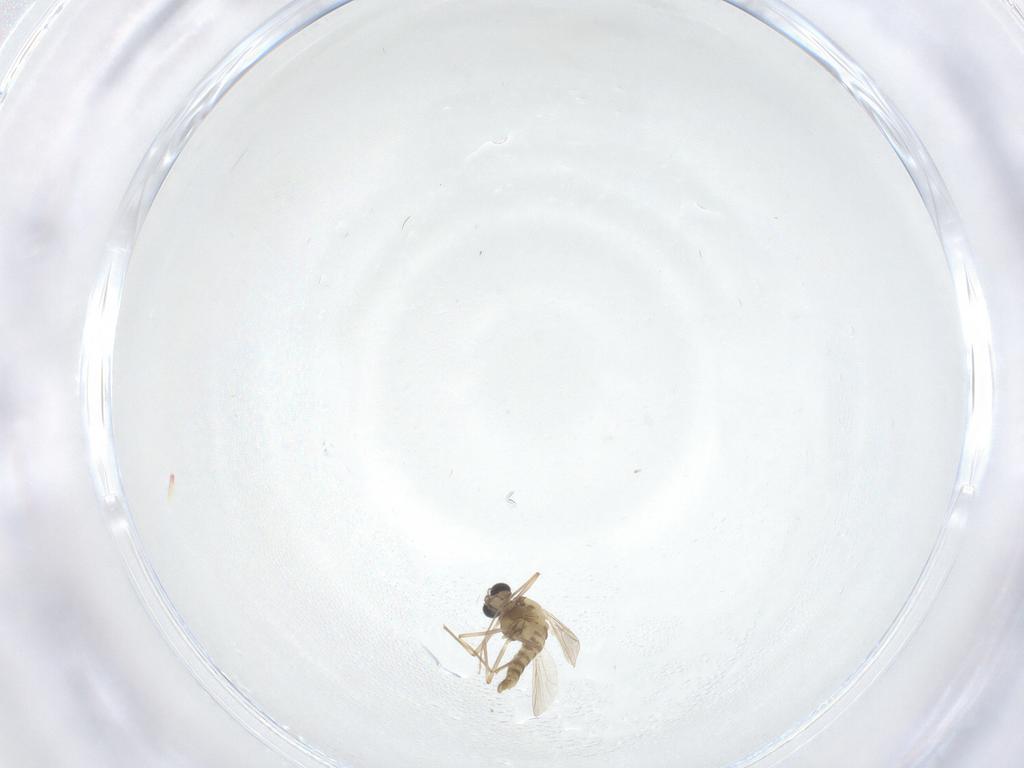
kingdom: Animalia
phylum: Arthropoda
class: Insecta
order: Diptera
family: Chironomidae
